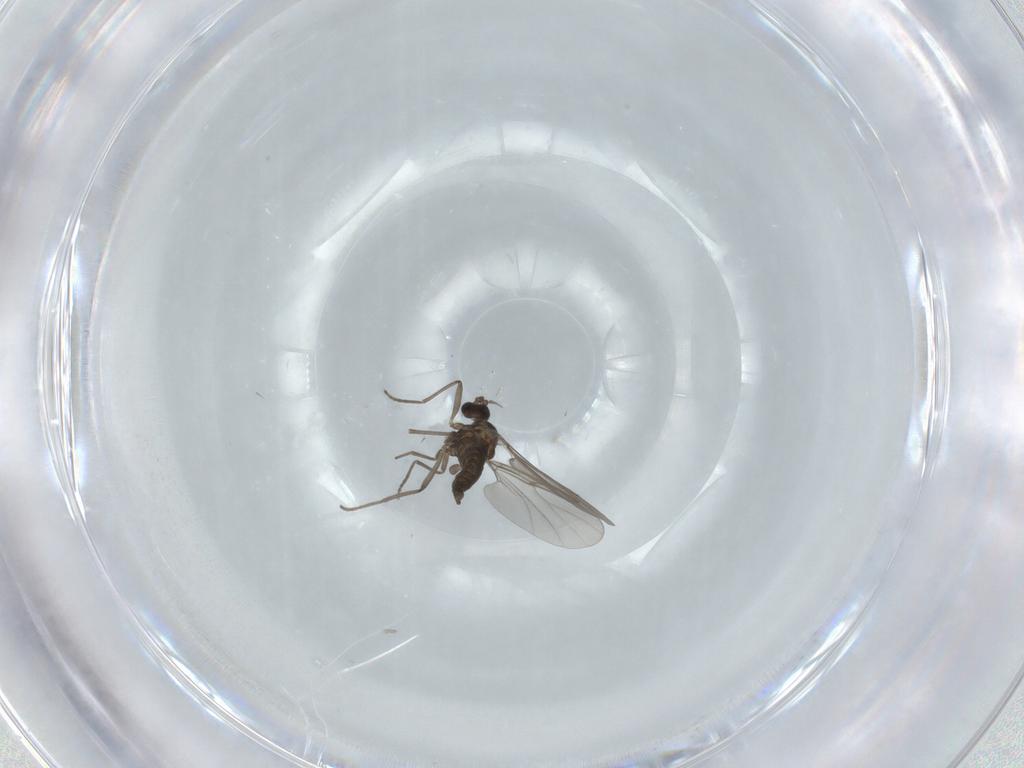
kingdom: Animalia
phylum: Arthropoda
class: Insecta
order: Diptera
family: Cecidomyiidae
